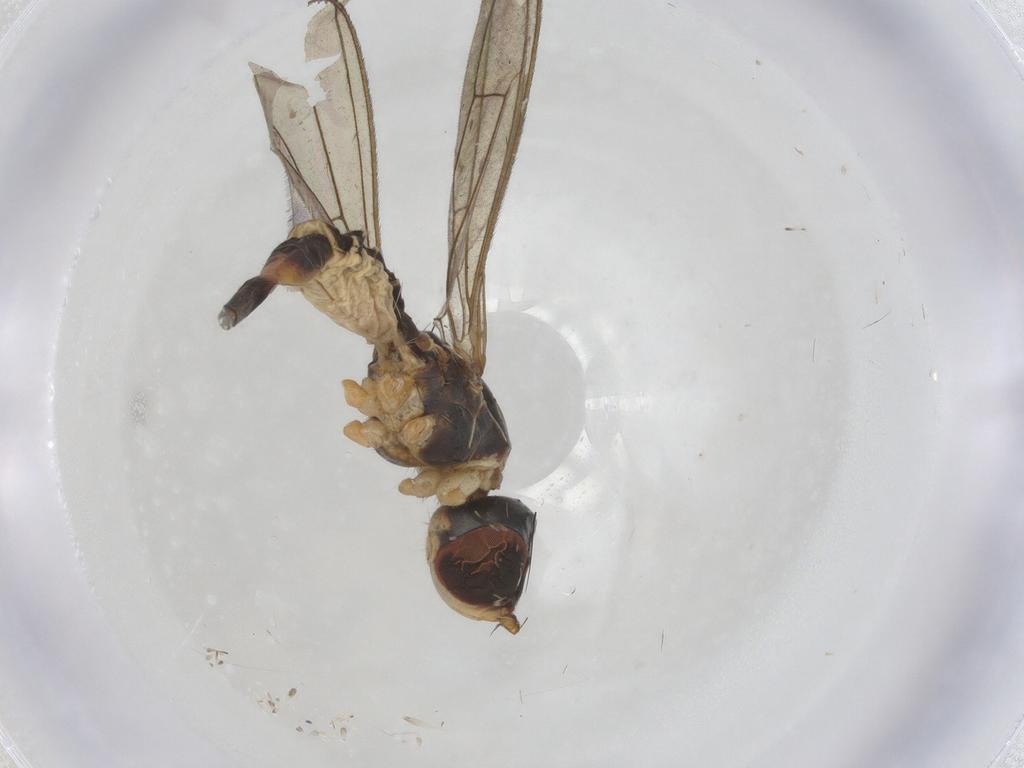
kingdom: Animalia
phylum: Arthropoda
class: Insecta
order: Diptera
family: Micropezidae
